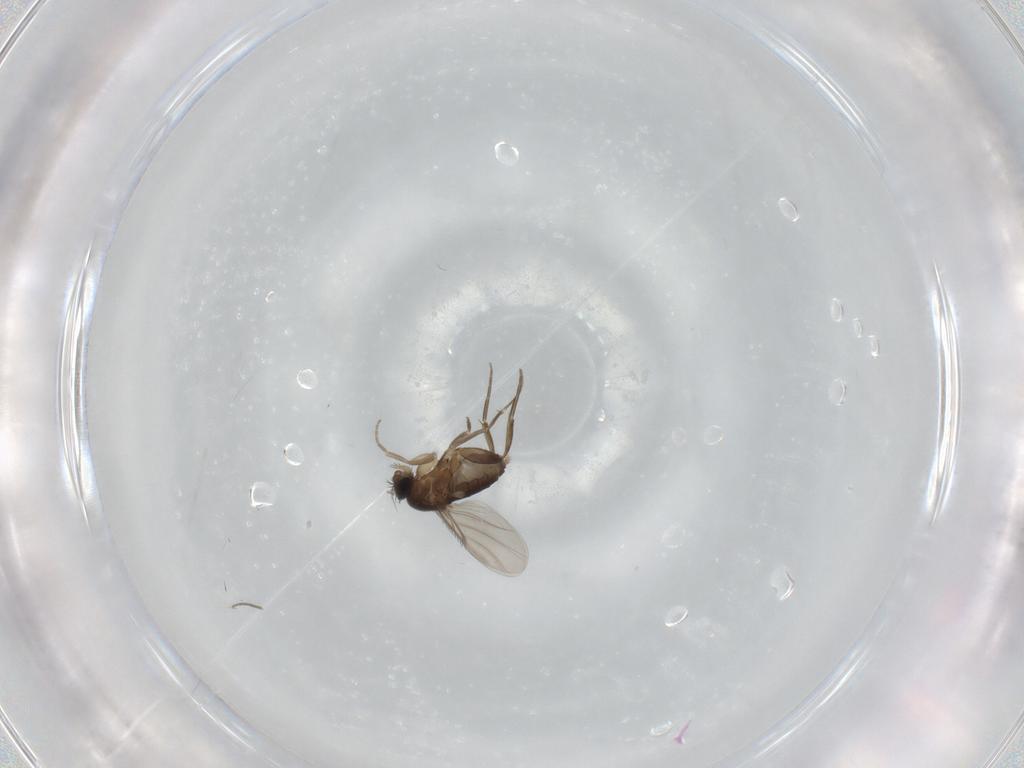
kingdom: Animalia
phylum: Arthropoda
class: Insecta
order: Diptera
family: Phoridae
